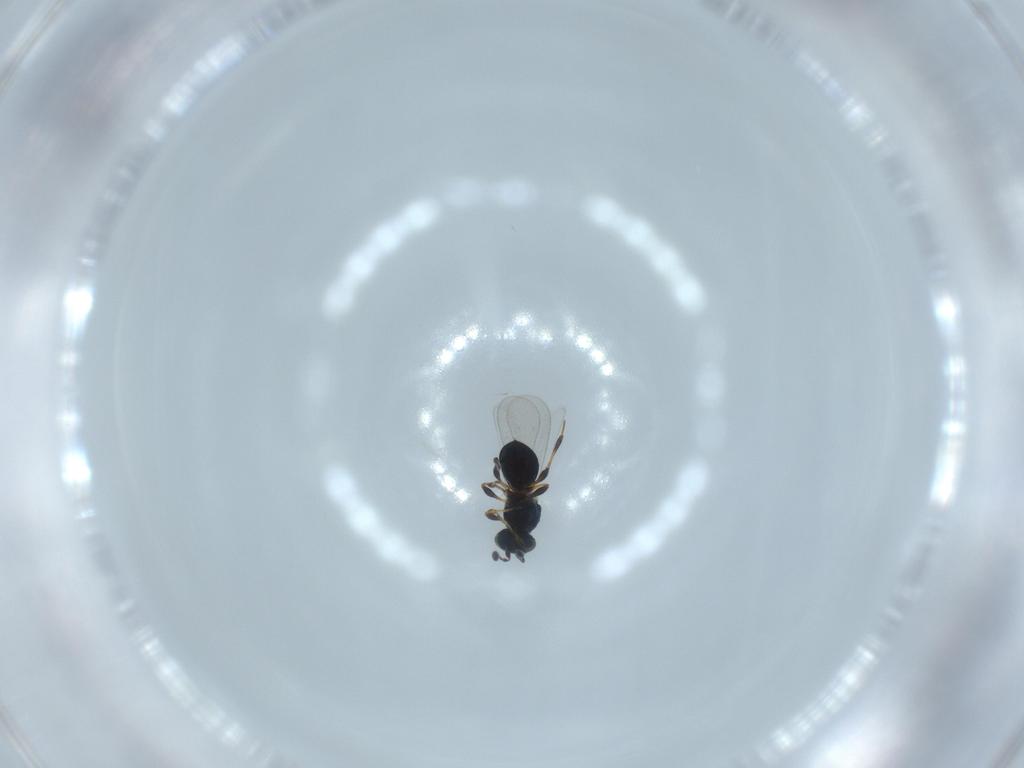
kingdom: Animalia
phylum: Arthropoda
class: Insecta
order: Hymenoptera
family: Platygastridae
